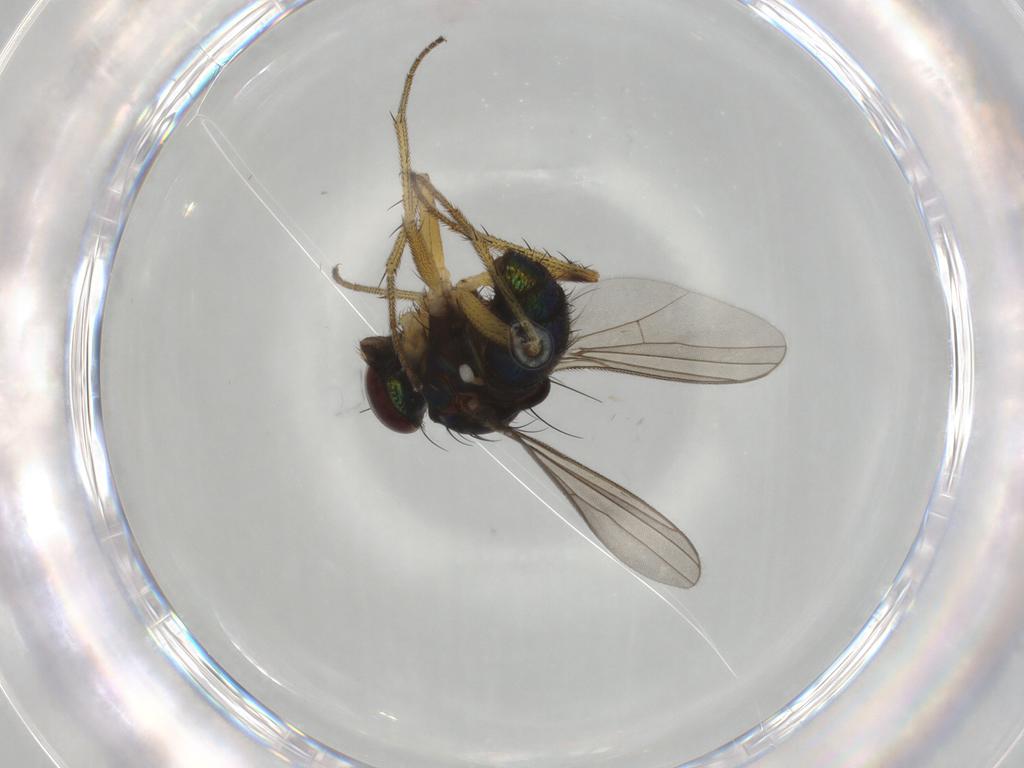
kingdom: Animalia
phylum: Arthropoda
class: Insecta
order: Diptera
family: Dolichopodidae
